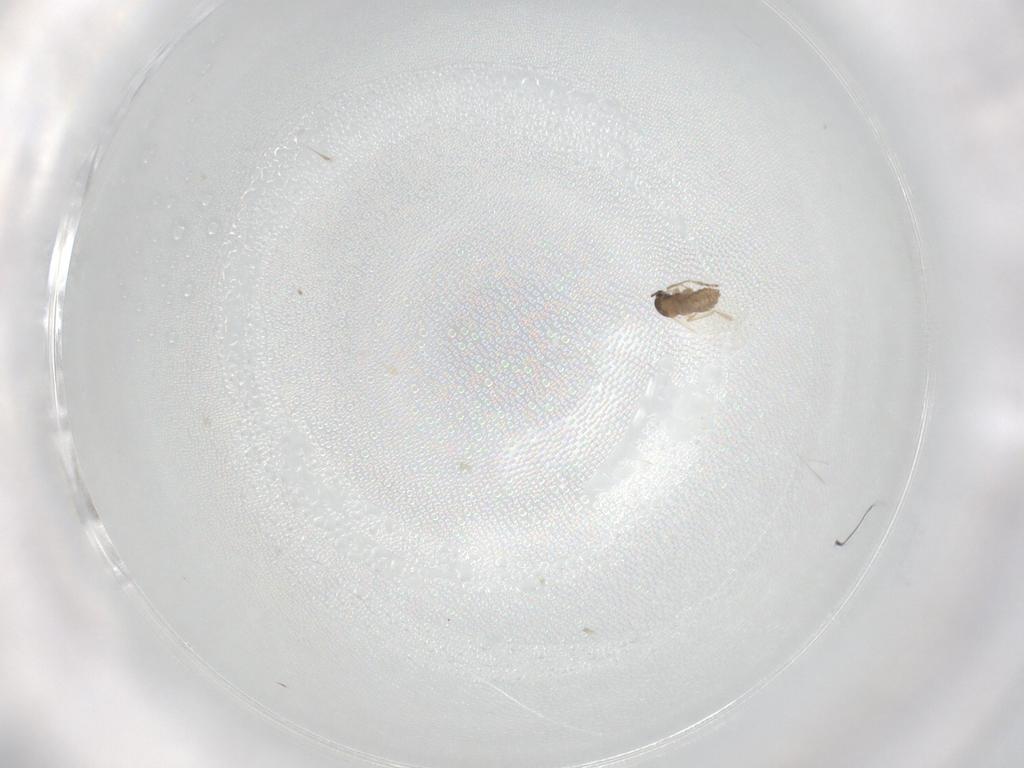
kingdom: Animalia
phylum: Arthropoda
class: Insecta
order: Diptera
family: Cecidomyiidae
